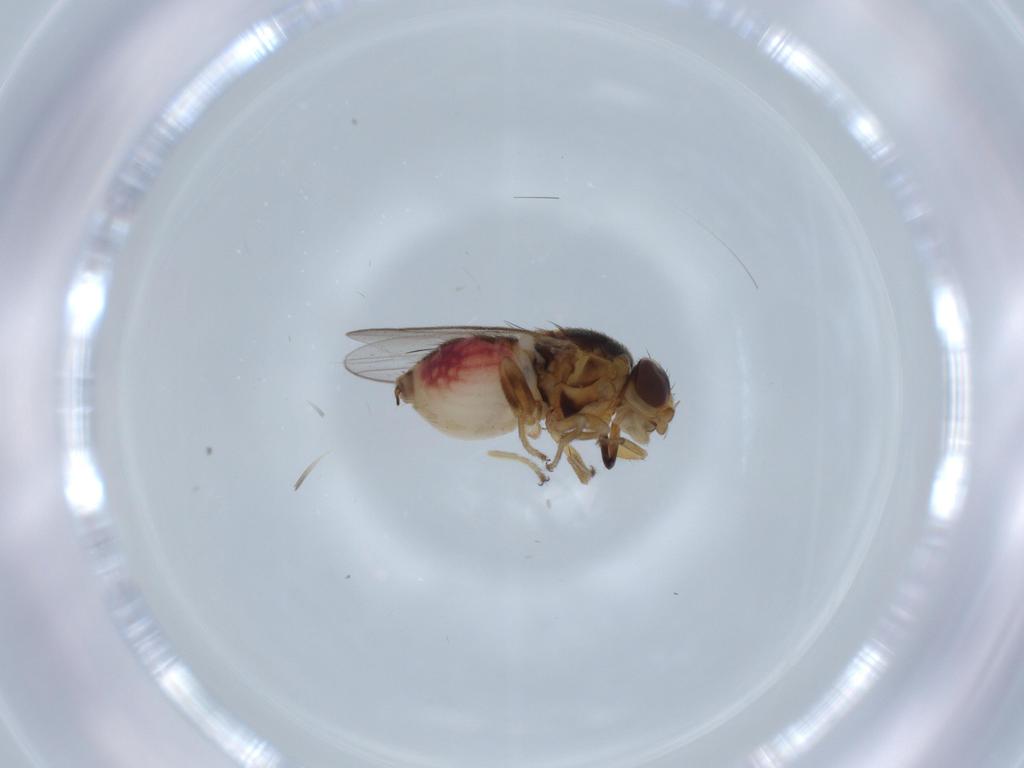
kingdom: Animalia
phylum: Arthropoda
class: Insecta
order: Diptera
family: Chloropidae
